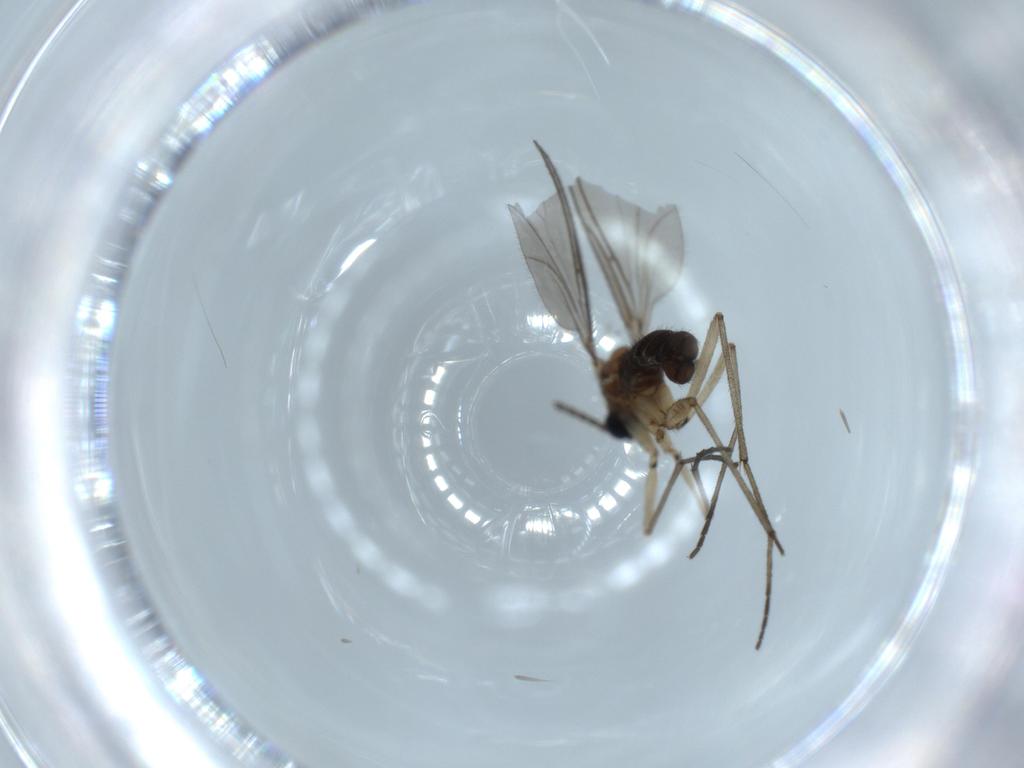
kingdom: Animalia
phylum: Arthropoda
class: Insecta
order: Diptera
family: Sciaridae
